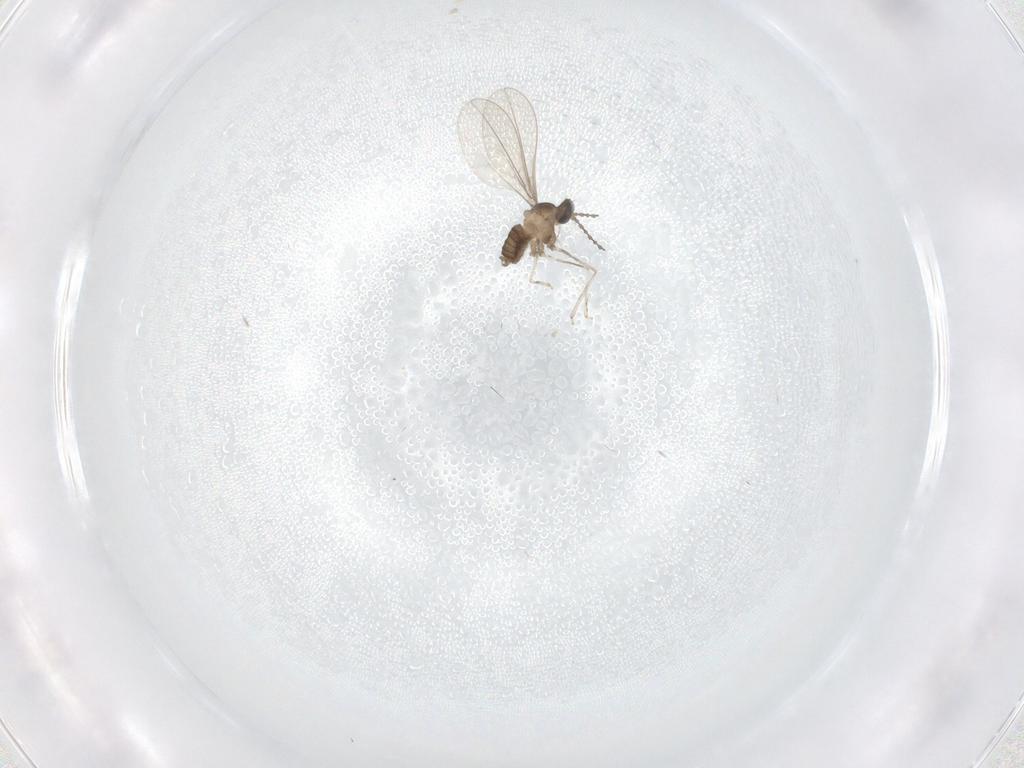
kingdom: Animalia
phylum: Arthropoda
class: Insecta
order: Diptera
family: Cecidomyiidae
